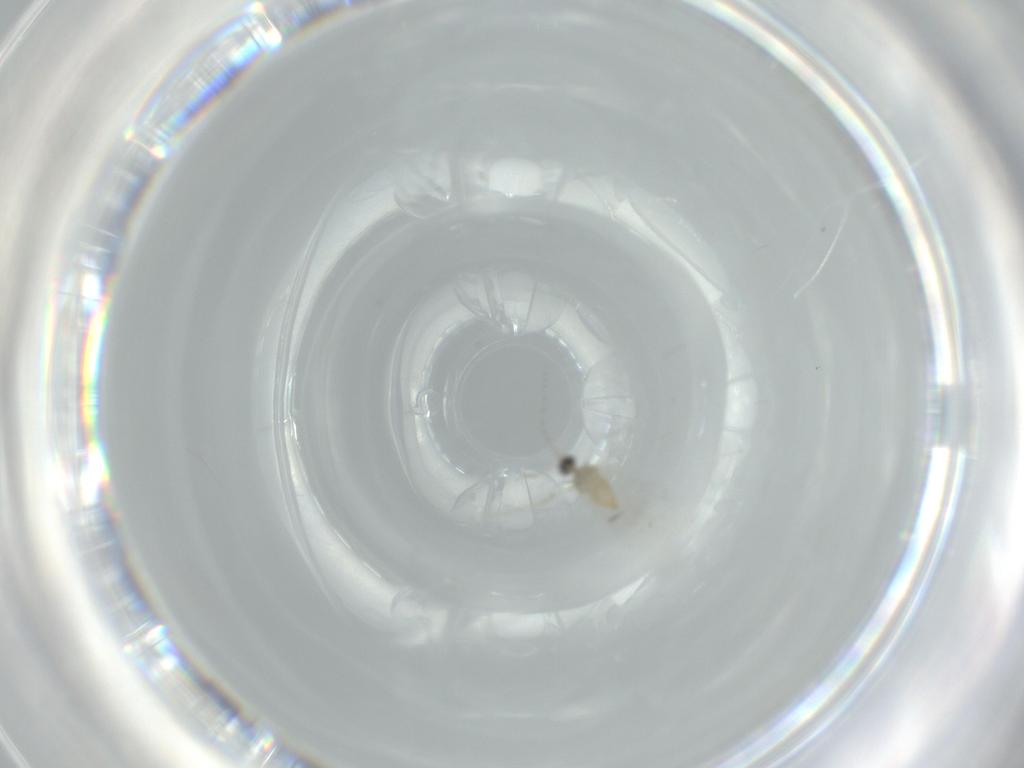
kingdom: Animalia
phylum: Arthropoda
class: Insecta
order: Diptera
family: Cecidomyiidae
